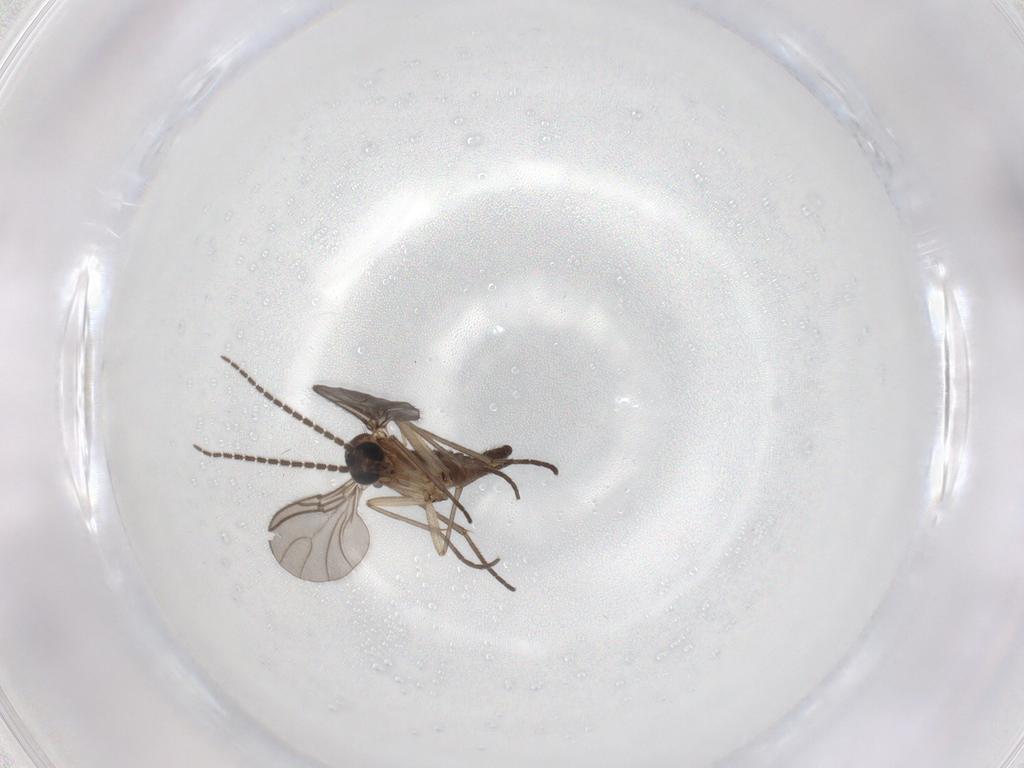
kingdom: Animalia
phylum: Arthropoda
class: Insecta
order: Diptera
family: Sciaridae
